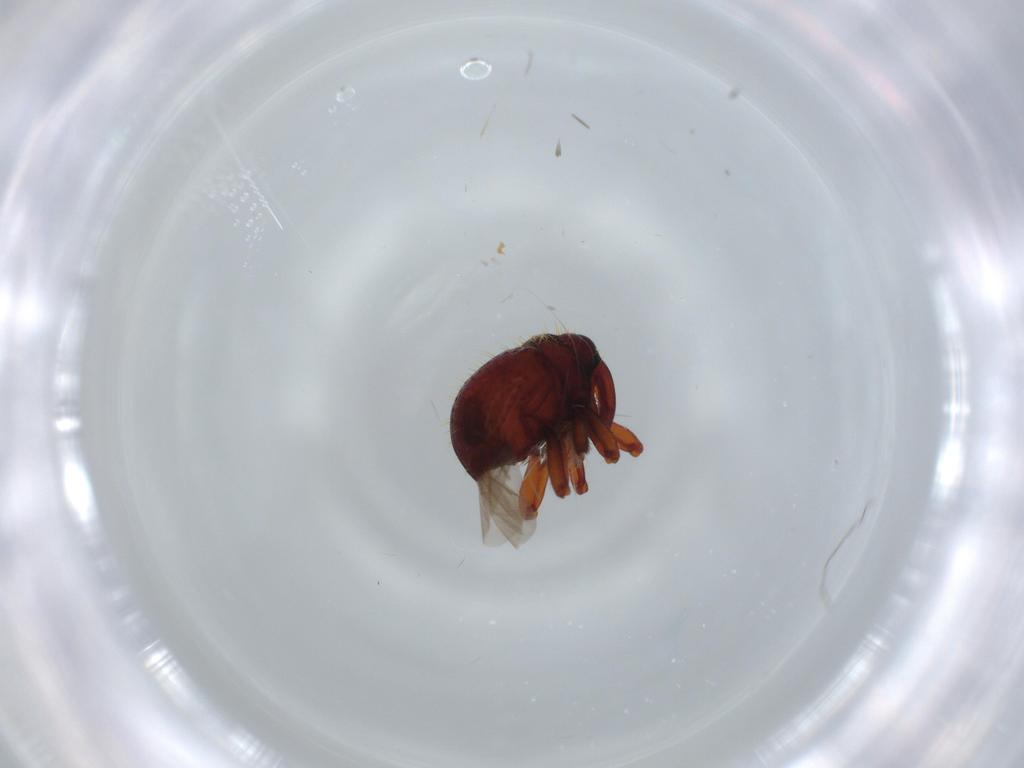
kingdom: Animalia
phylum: Arthropoda
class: Insecta
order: Coleoptera
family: Curculionidae
